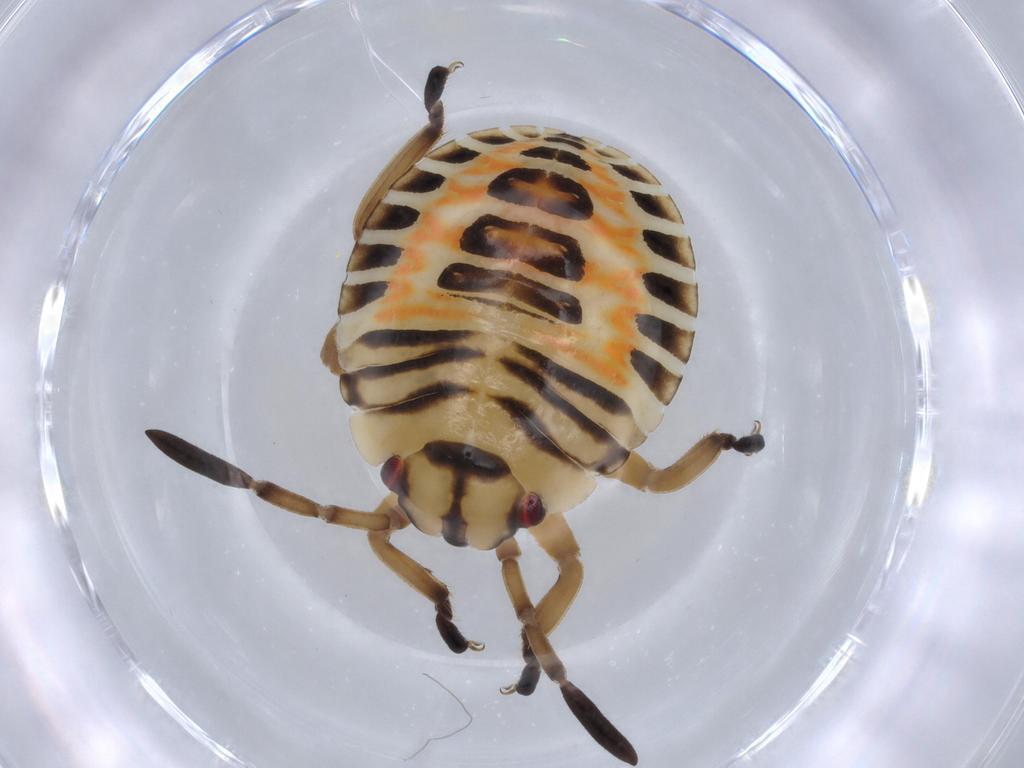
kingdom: Animalia
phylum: Arthropoda
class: Insecta
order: Hemiptera
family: Pentatomidae
